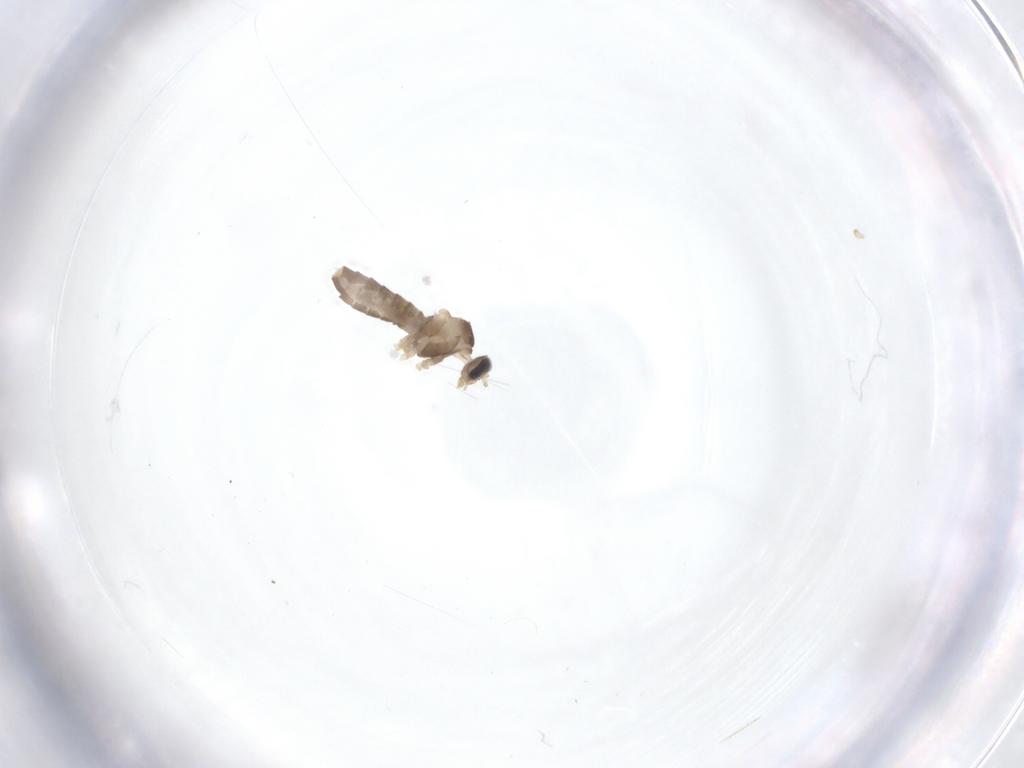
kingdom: Animalia
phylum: Arthropoda
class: Insecta
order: Diptera
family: Cecidomyiidae
